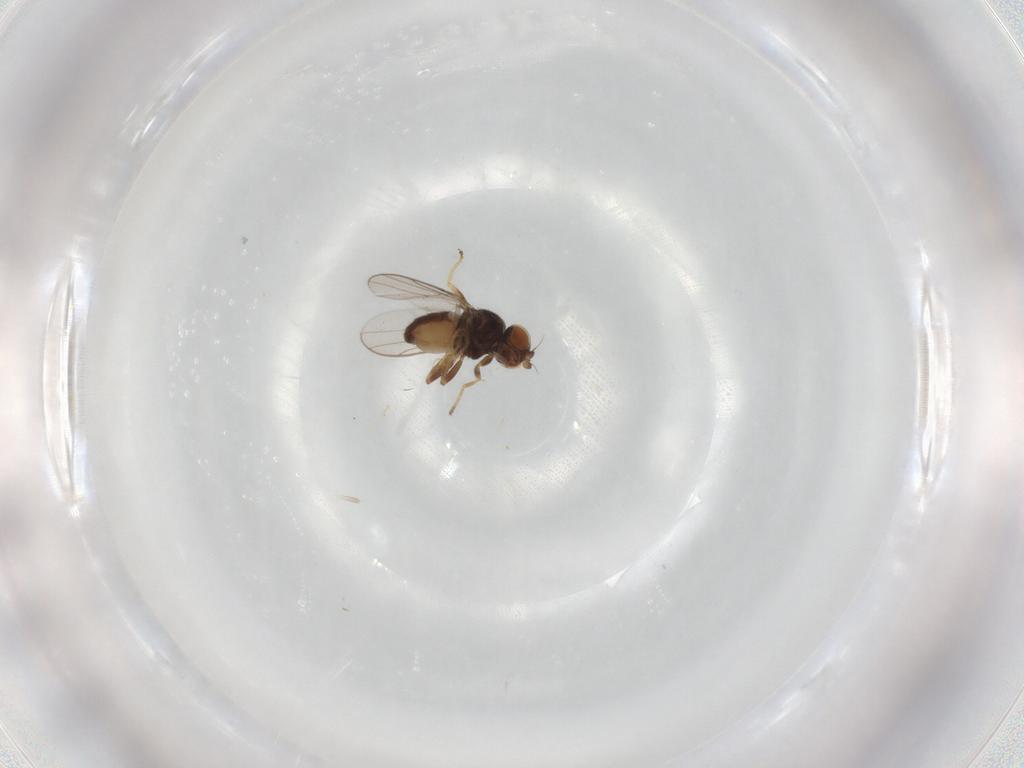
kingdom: Animalia
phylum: Arthropoda
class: Insecta
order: Diptera
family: Chloropidae
